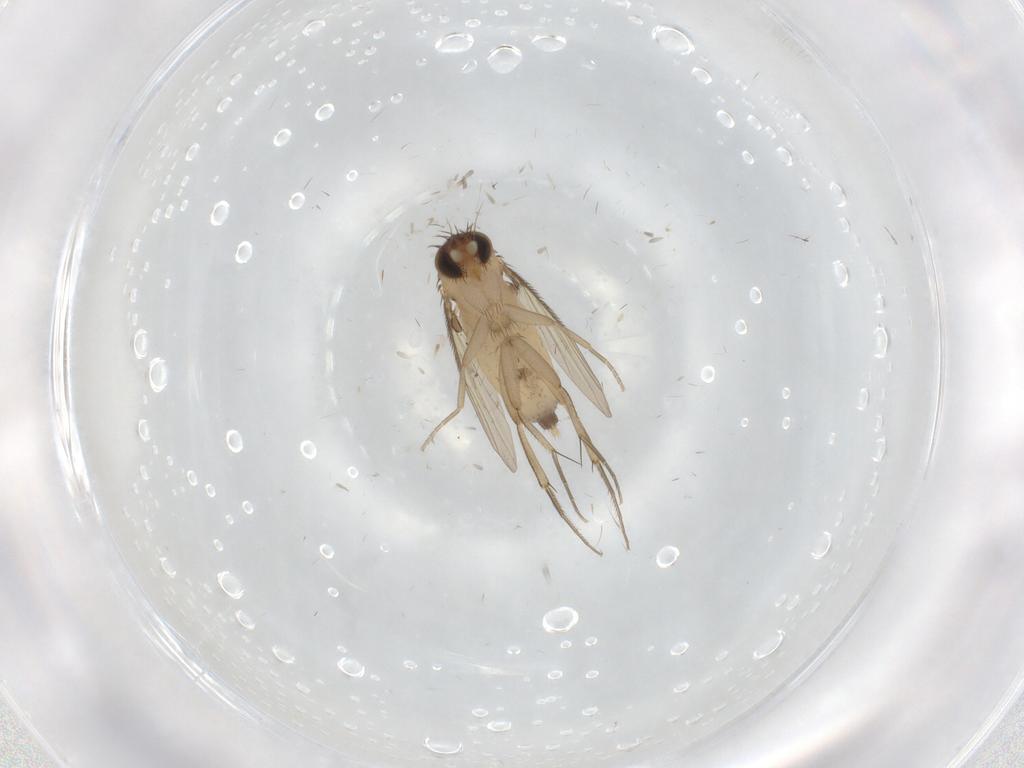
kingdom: Animalia
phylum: Arthropoda
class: Insecta
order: Diptera
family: Phoridae
